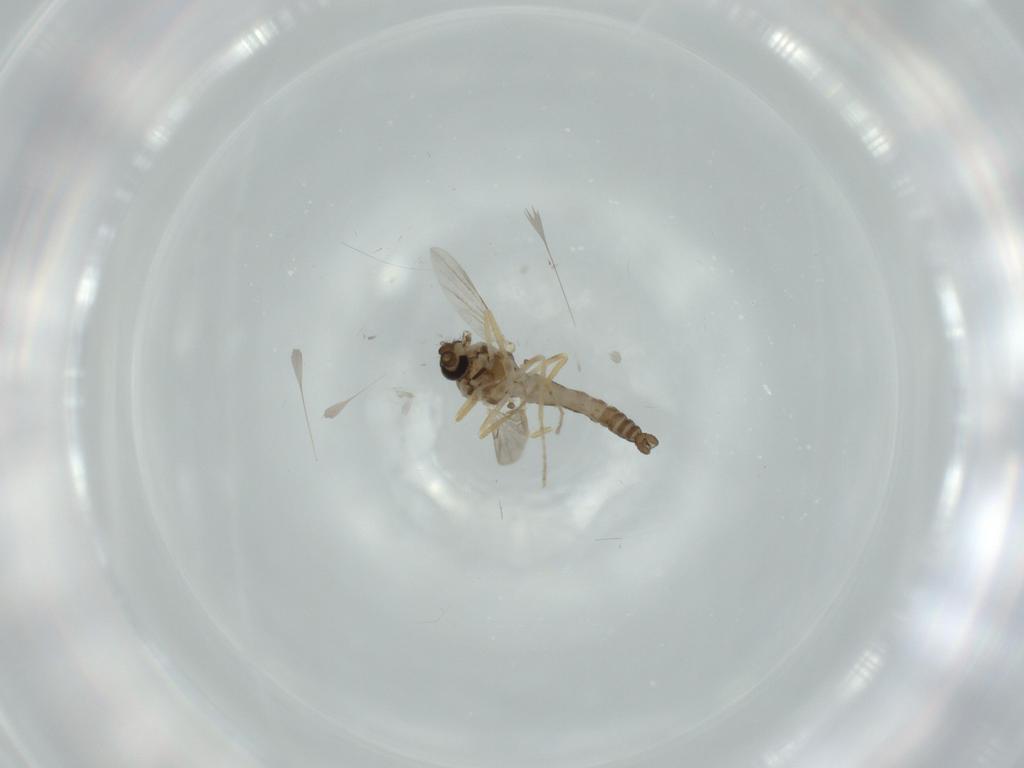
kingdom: Animalia
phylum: Arthropoda
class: Insecta
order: Diptera
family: Ceratopogonidae
